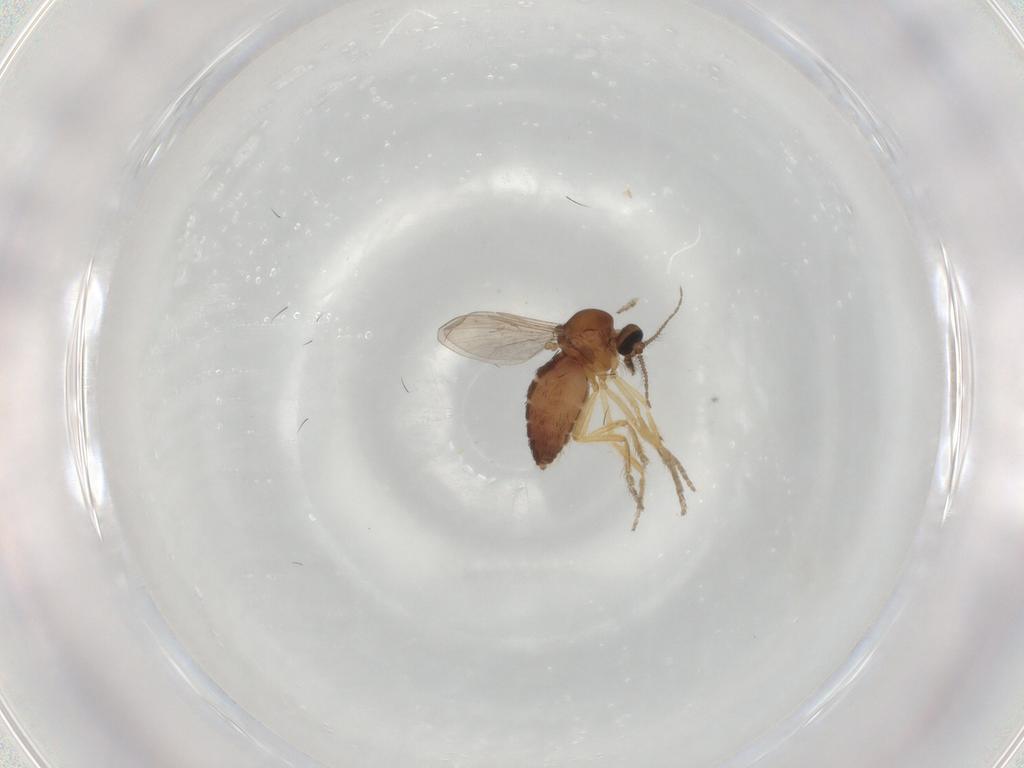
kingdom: Animalia
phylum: Arthropoda
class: Insecta
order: Diptera
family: Ceratopogonidae
